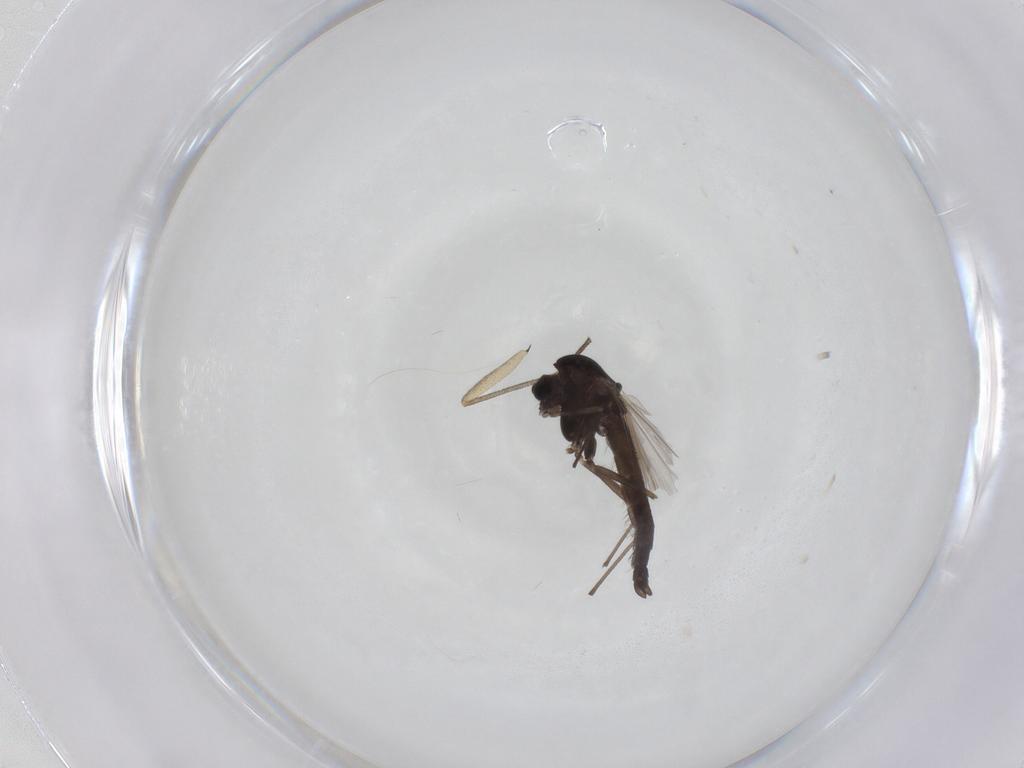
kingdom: Animalia
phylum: Arthropoda
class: Insecta
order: Diptera
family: Chironomidae
